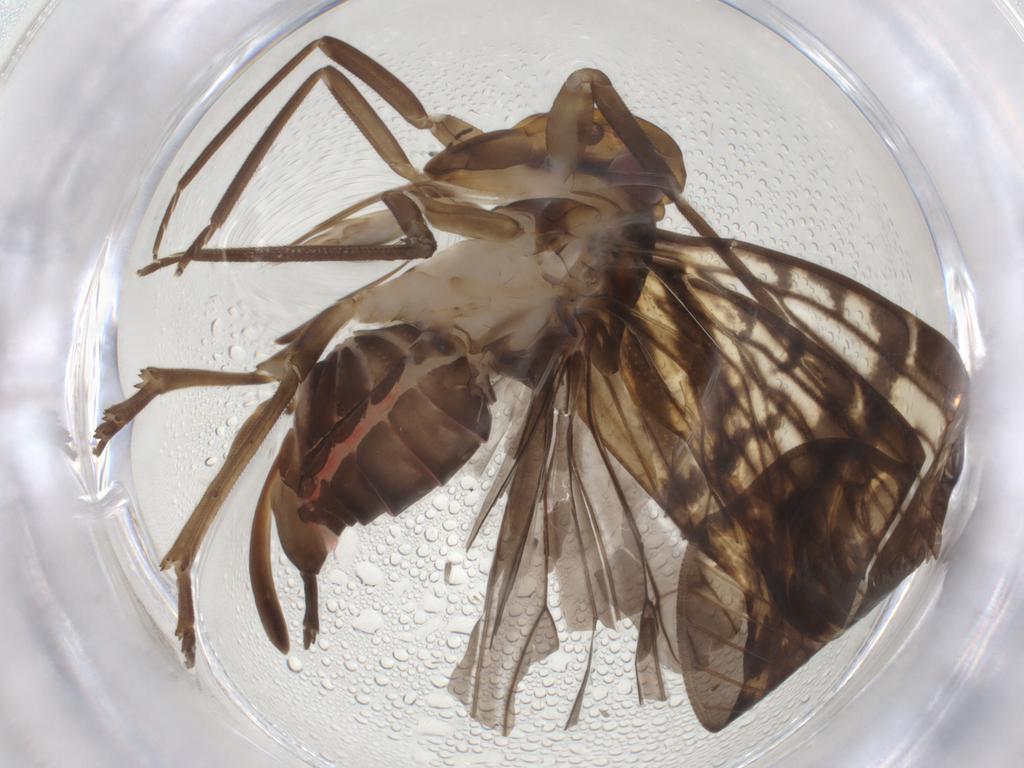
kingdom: Animalia
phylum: Arthropoda
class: Insecta
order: Hemiptera
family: Cixiidae
